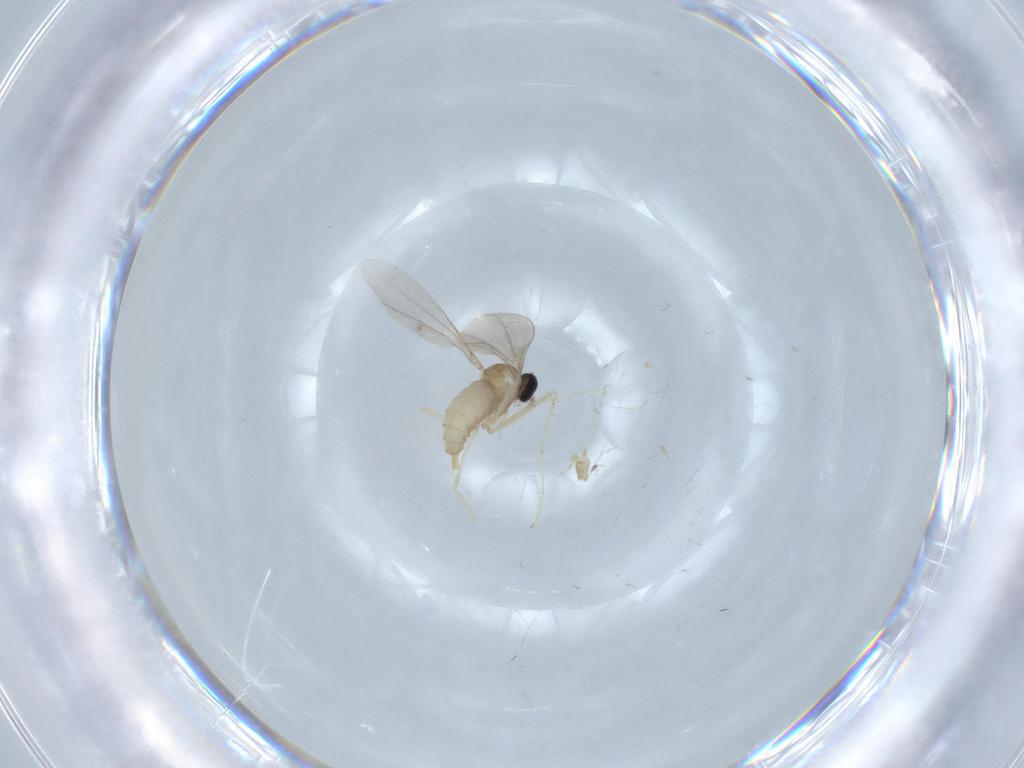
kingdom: Animalia
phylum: Arthropoda
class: Insecta
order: Diptera
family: Cecidomyiidae
